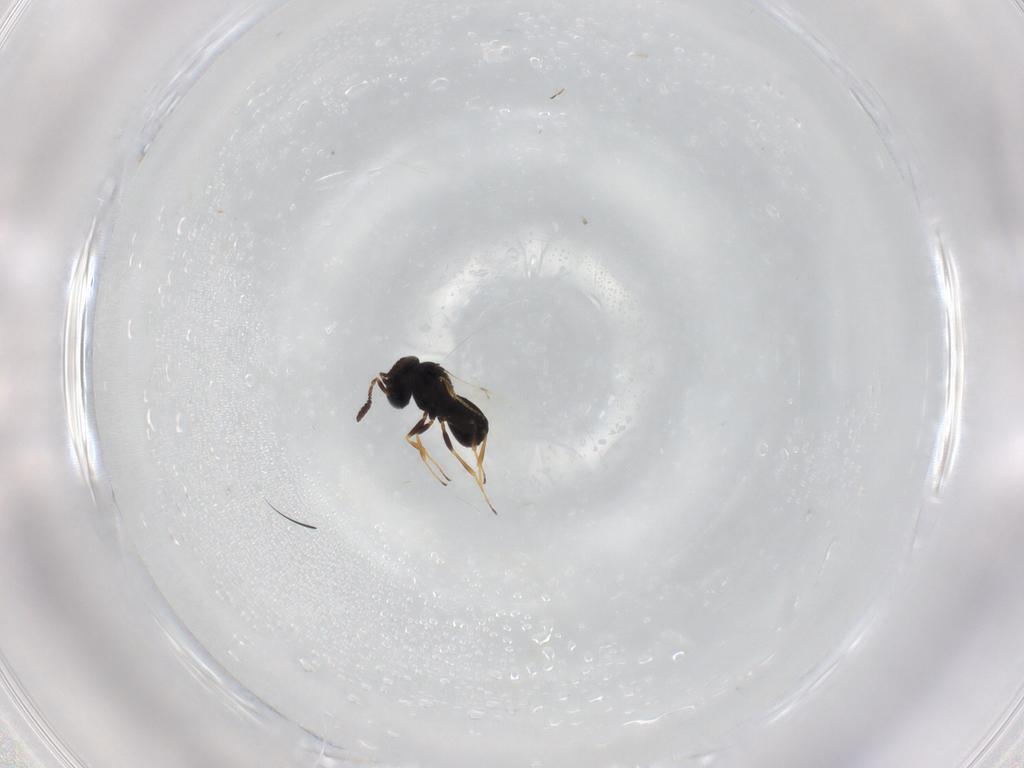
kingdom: Animalia
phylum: Arthropoda
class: Insecta
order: Hymenoptera
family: Scelionidae
